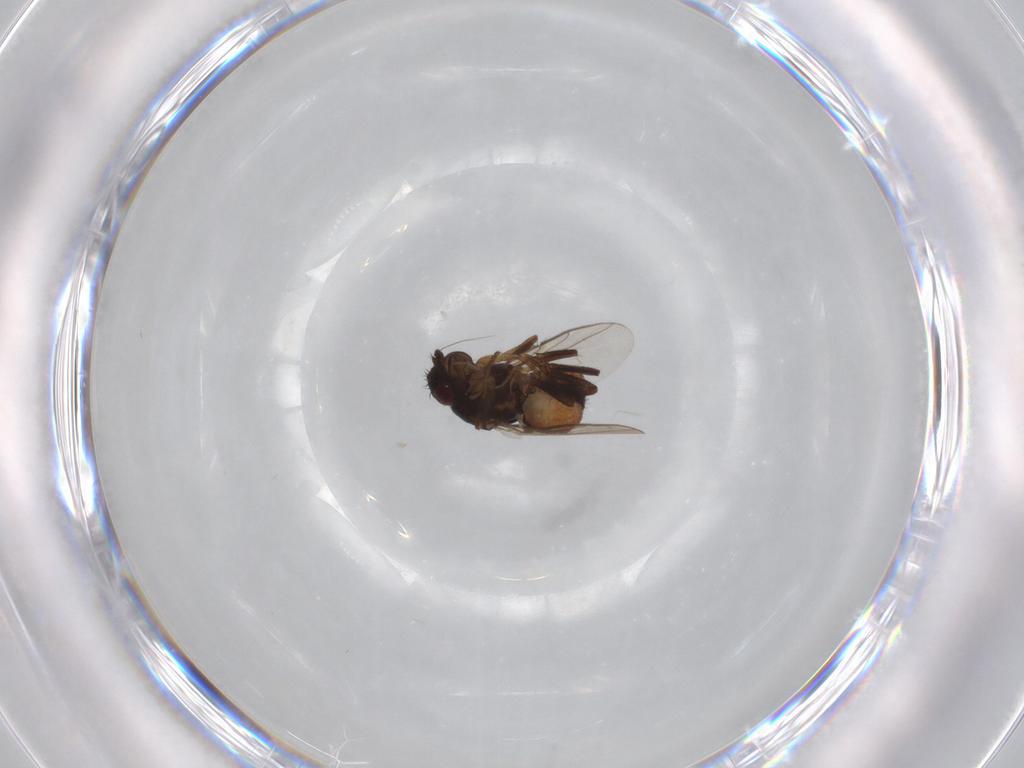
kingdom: Animalia
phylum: Arthropoda
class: Insecta
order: Diptera
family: Sphaeroceridae
